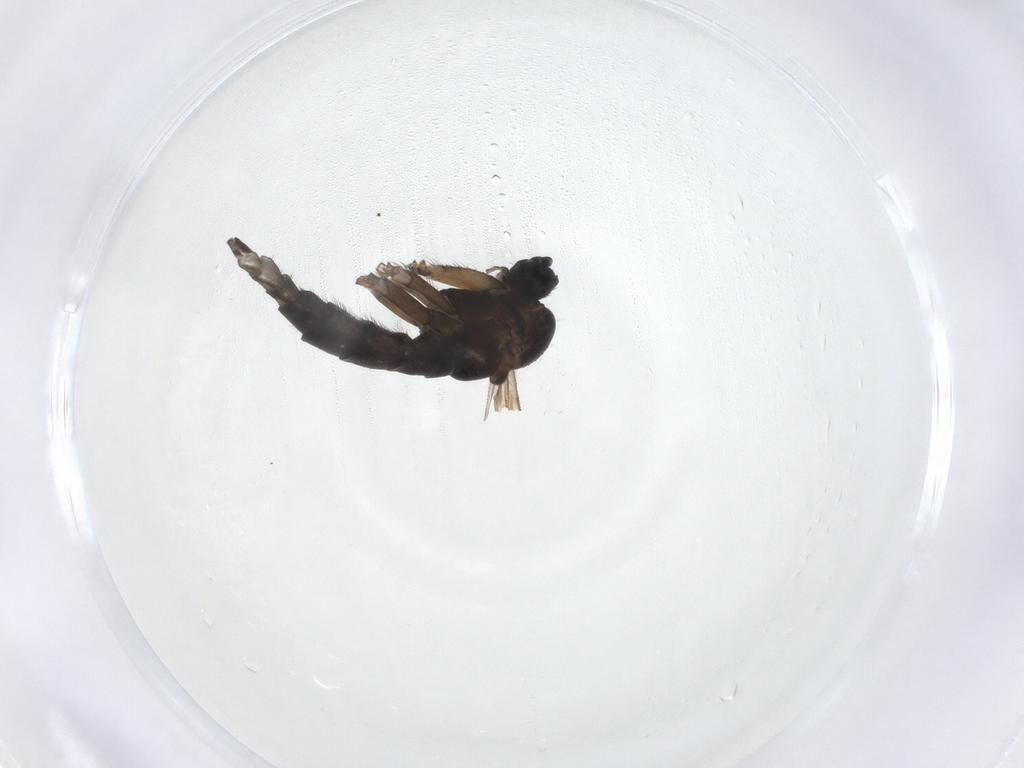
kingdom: Animalia
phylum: Arthropoda
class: Insecta
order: Diptera
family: Sciaridae
